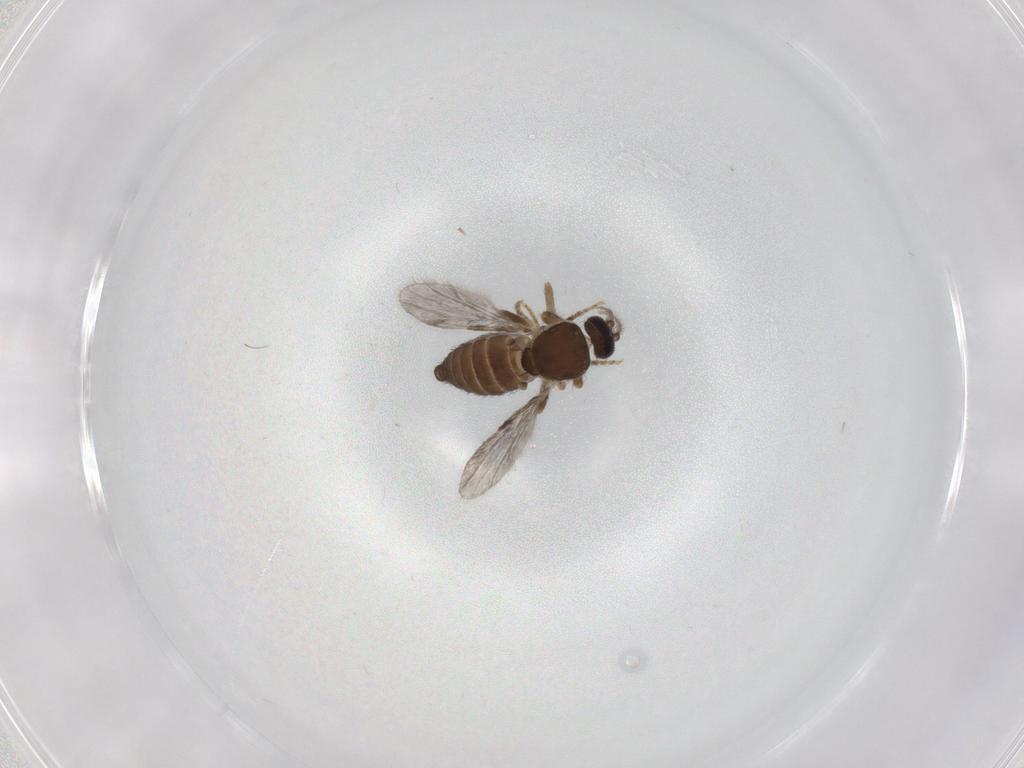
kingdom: Animalia
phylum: Arthropoda
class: Insecta
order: Diptera
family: Ceratopogonidae
